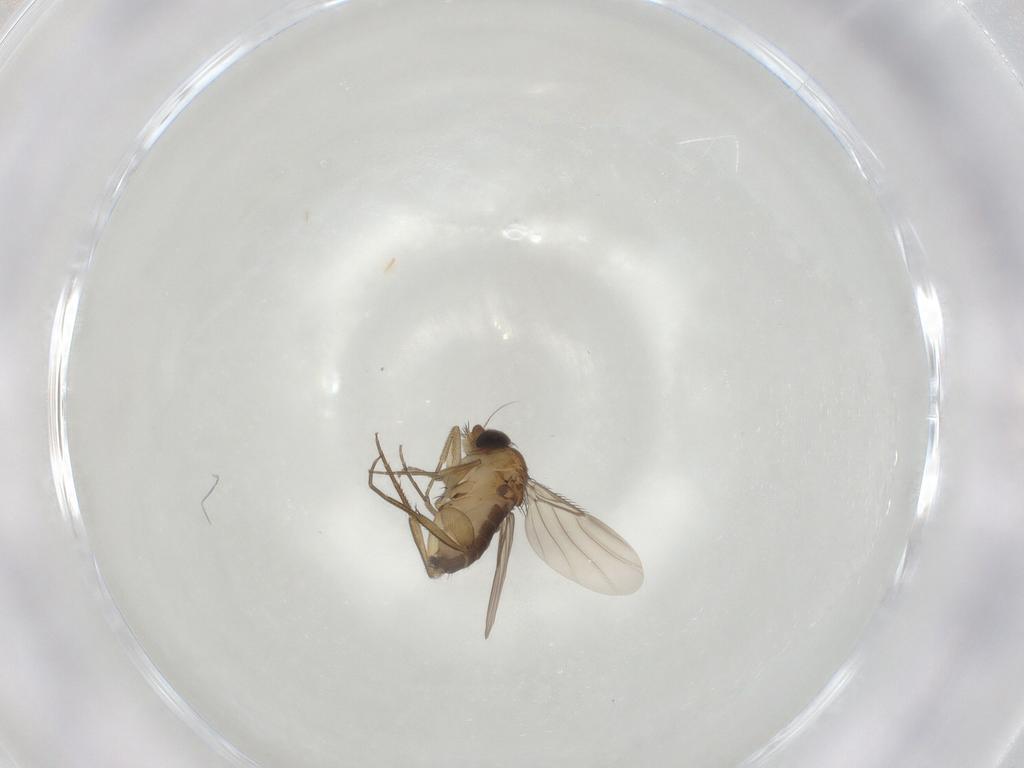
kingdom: Animalia
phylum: Arthropoda
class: Insecta
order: Diptera
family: Phoridae
